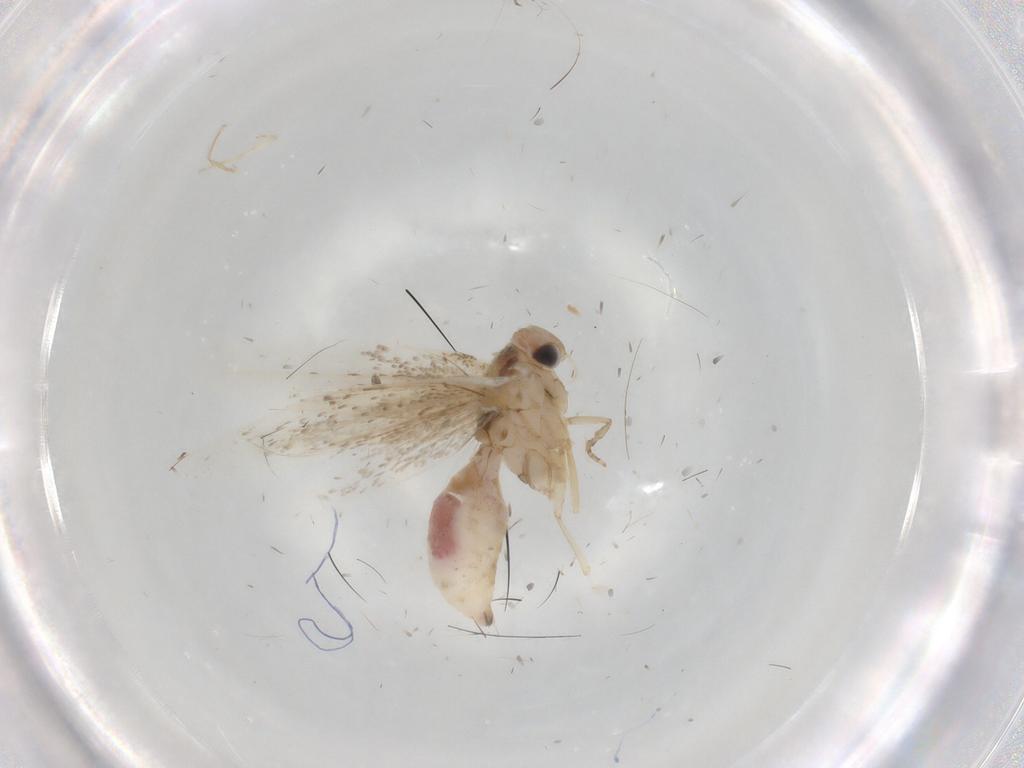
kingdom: Animalia
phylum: Arthropoda
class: Insecta
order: Lepidoptera
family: Bucculatricidae
